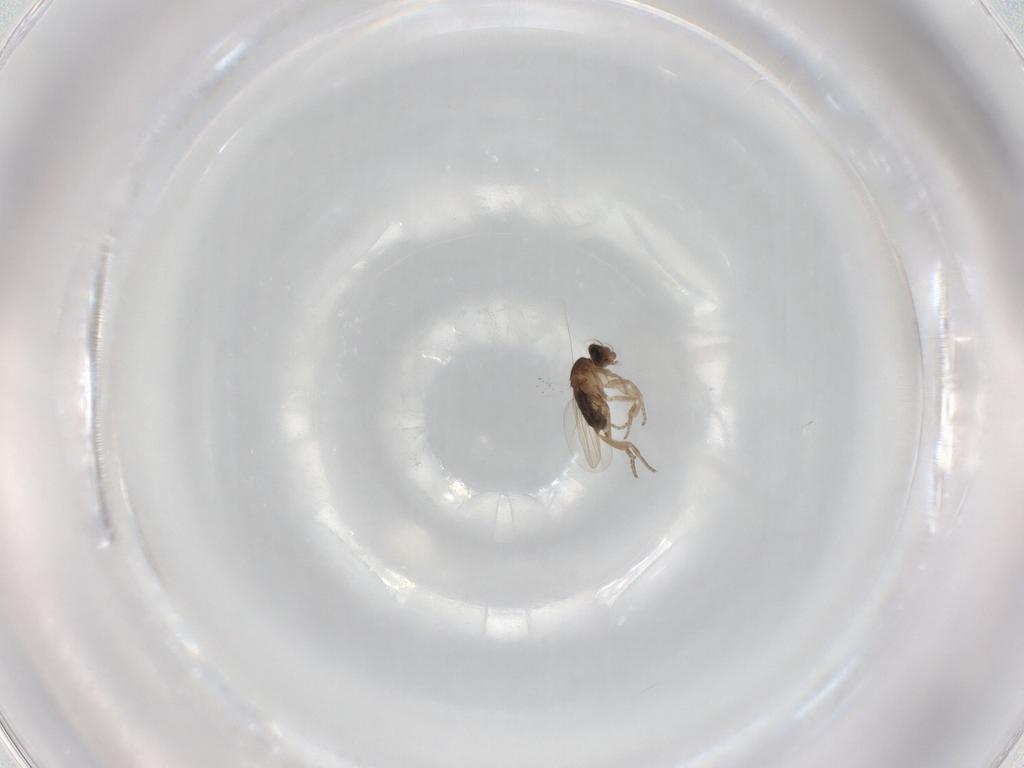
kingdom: Animalia
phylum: Arthropoda
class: Insecta
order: Diptera
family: Phoridae
